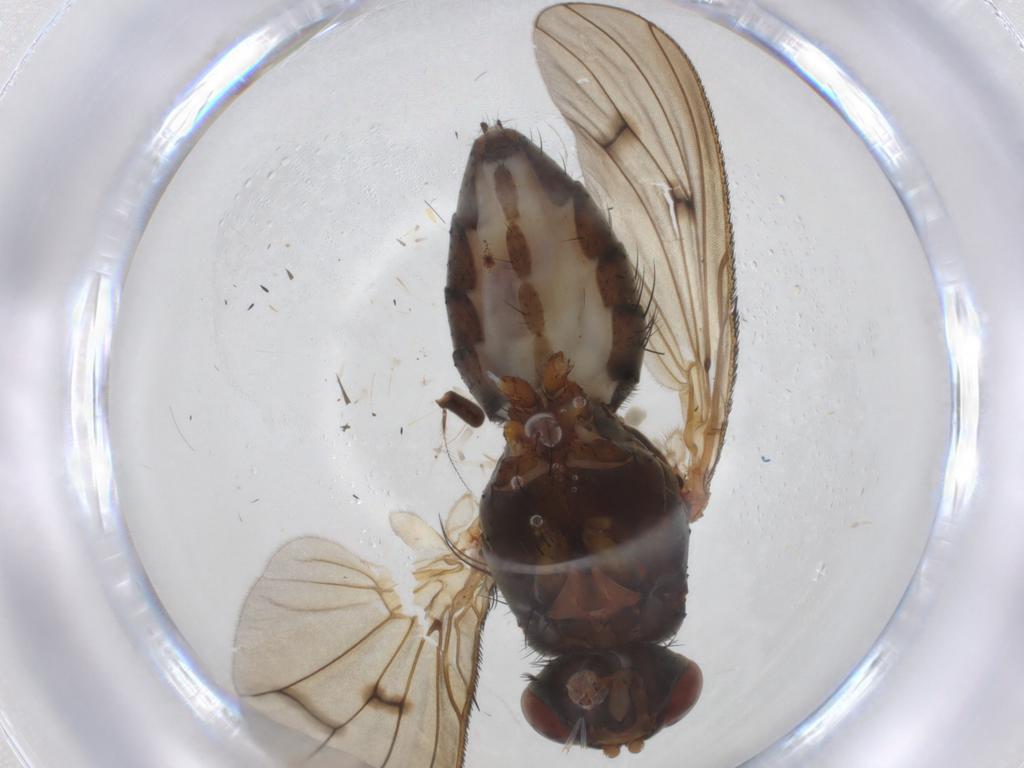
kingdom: Animalia
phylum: Arthropoda
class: Insecta
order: Diptera
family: Anthomyiidae
